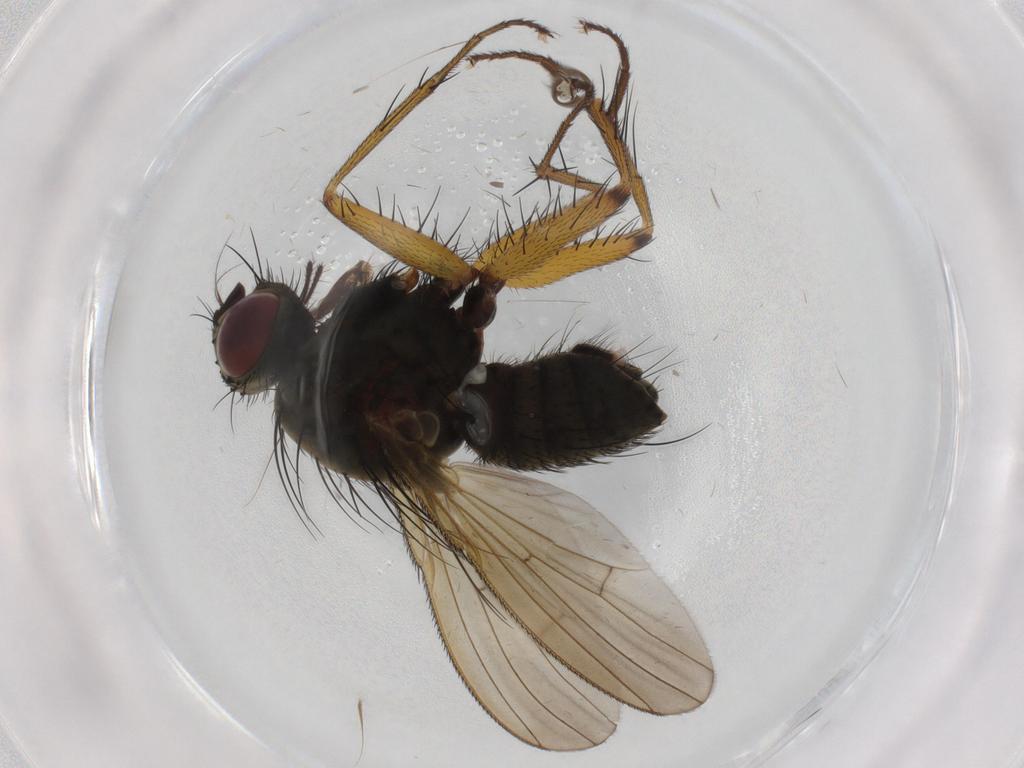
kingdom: Animalia
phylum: Arthropoda
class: Insecta
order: Diptera
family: Muscidae
